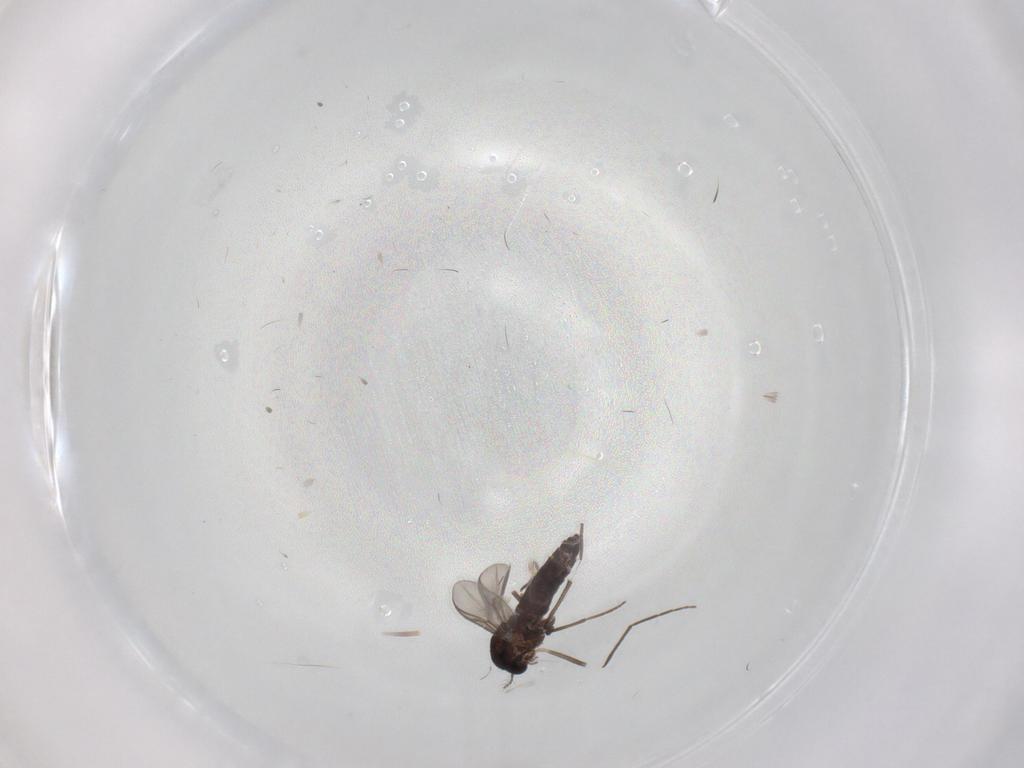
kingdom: Animalia
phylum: Arthropoda
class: Insecta
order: Diptera
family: Chironomidae
